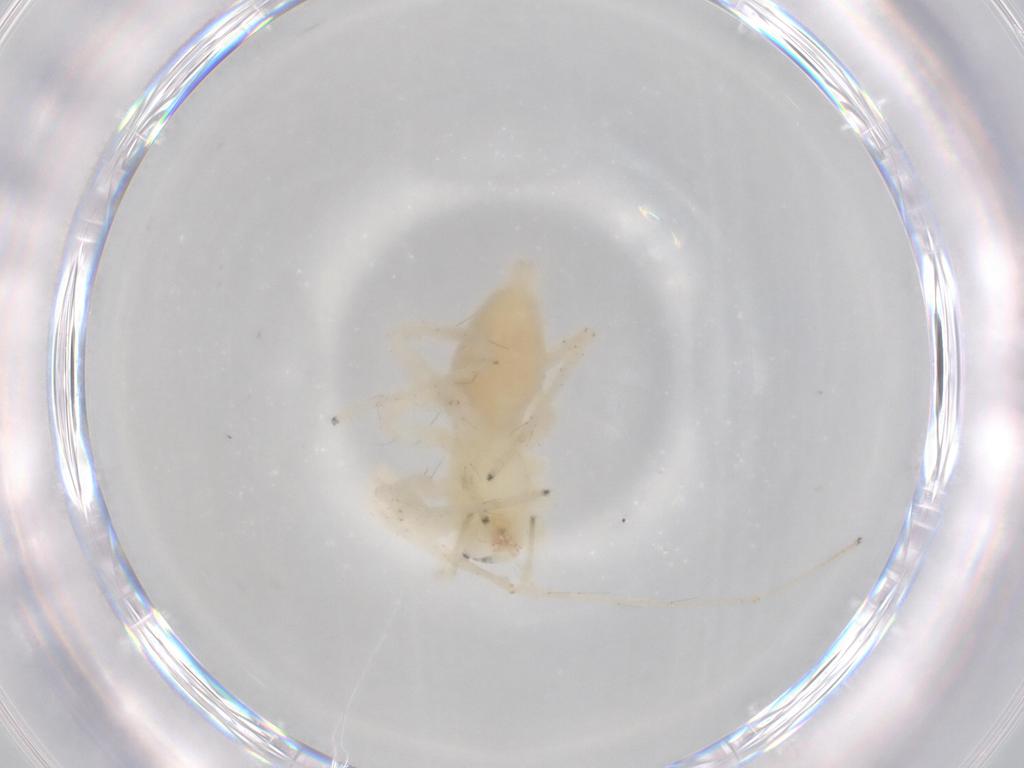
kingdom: Animalia
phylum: Arthropoda
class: Arachnida
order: Araneae
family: Anyphaenidae
